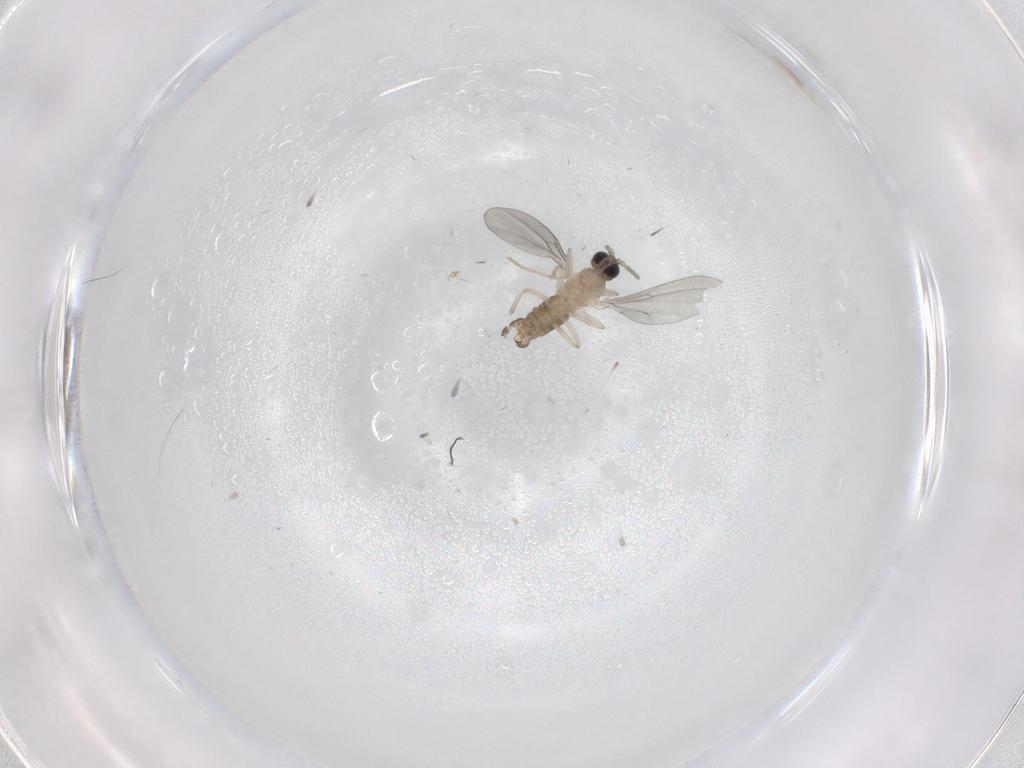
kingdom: Animalia
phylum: Arthropoda
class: Insecta
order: Diptera
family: Cecidomyiidae
